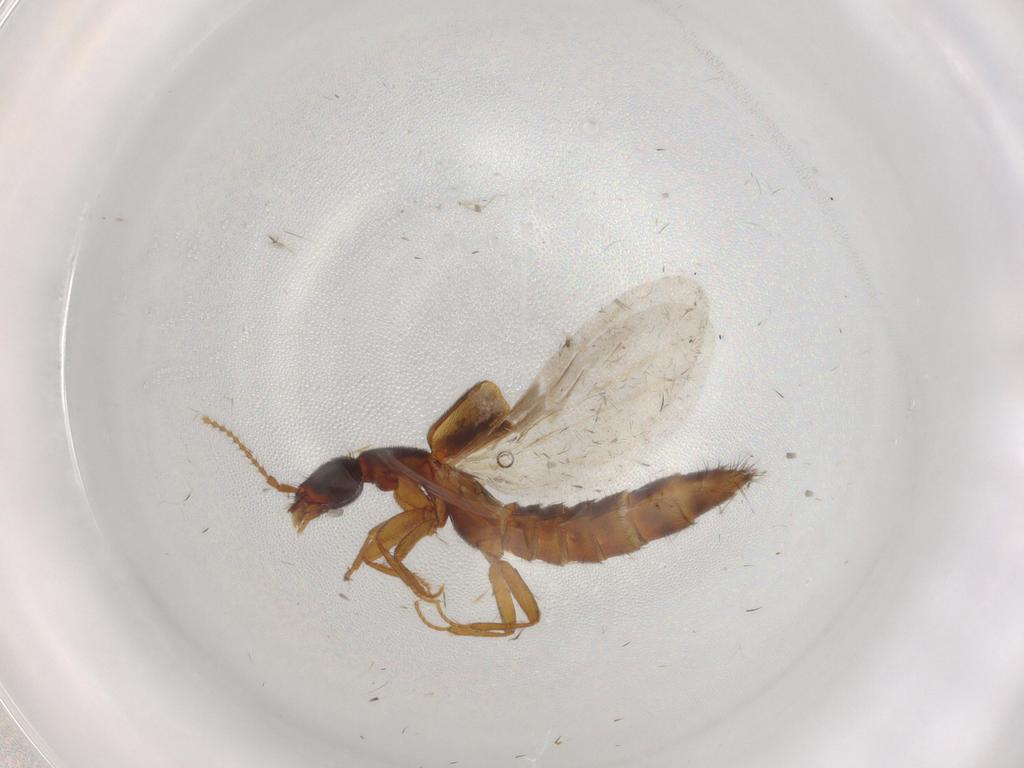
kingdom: Animalia
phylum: Arthropoda
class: Insecta
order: Coleoptera
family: Staphylinidae
